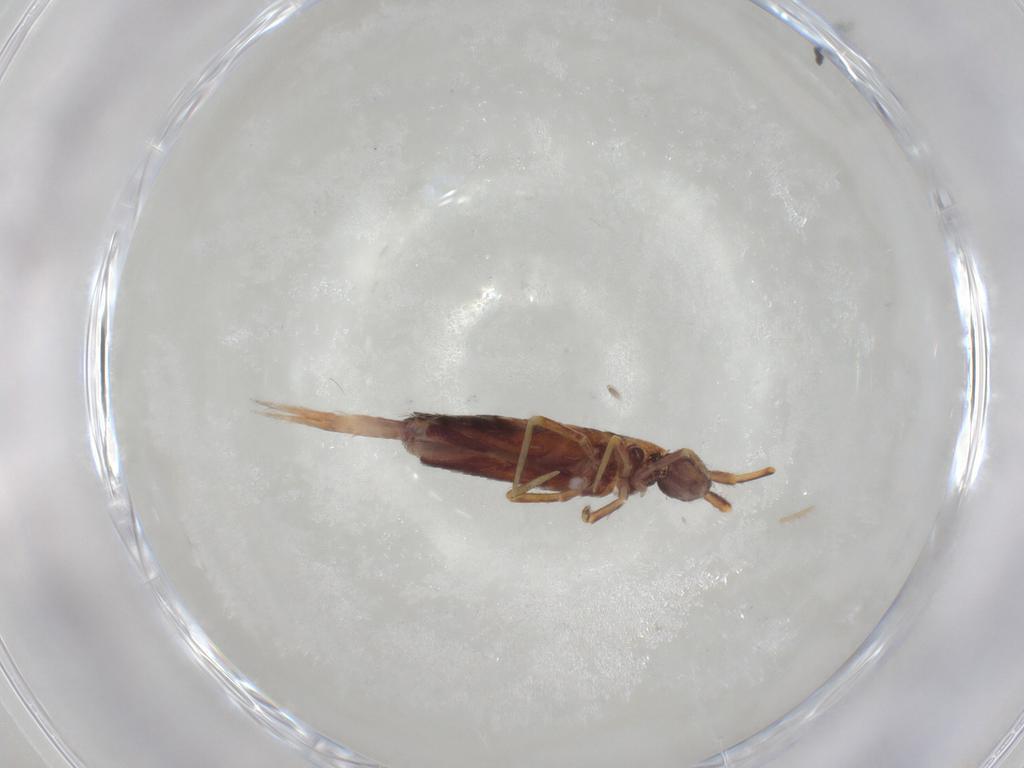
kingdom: Animalia
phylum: Arthropoda
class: Collembola
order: Entomobryomorpha
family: Entomobryidae
